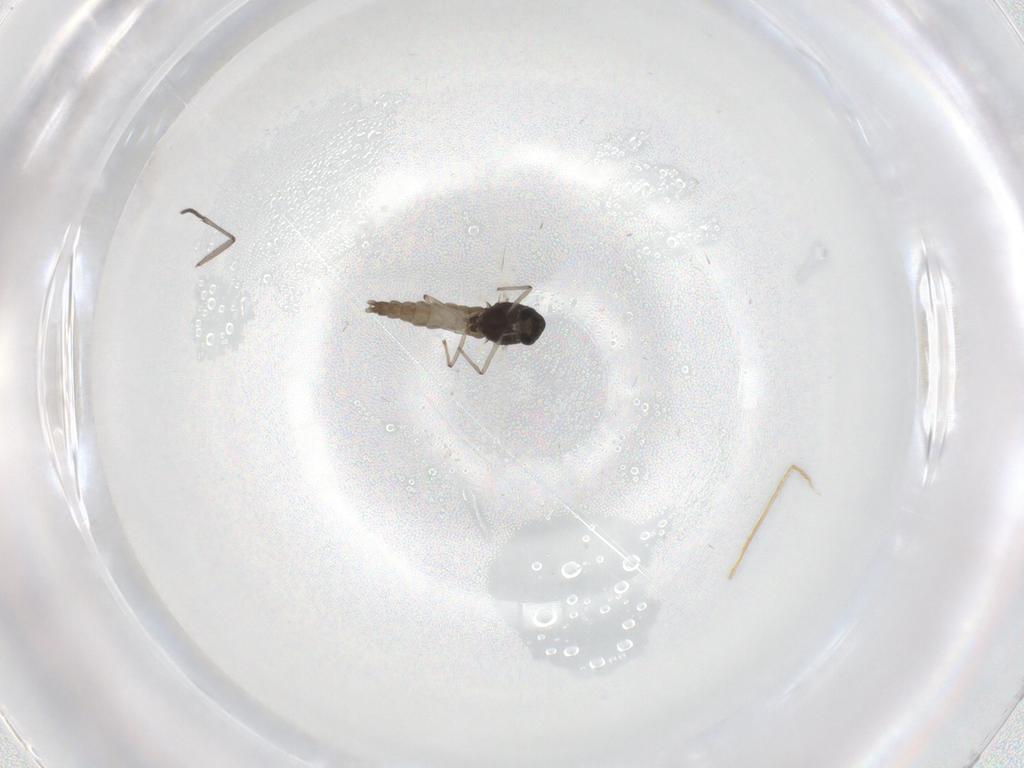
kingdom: Animalia
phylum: Arthropoda
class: Insecta
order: Diptera
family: Chironomidae
